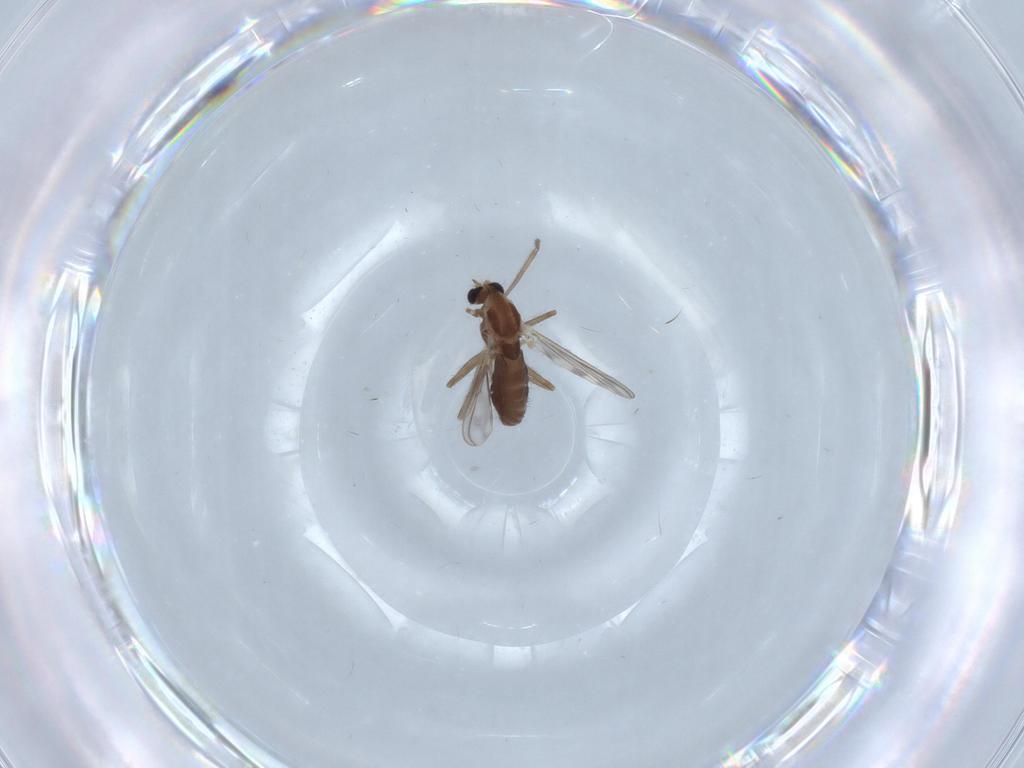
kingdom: Animalia
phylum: Arthropoda
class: Insecta
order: Diptera
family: Chironomidae
